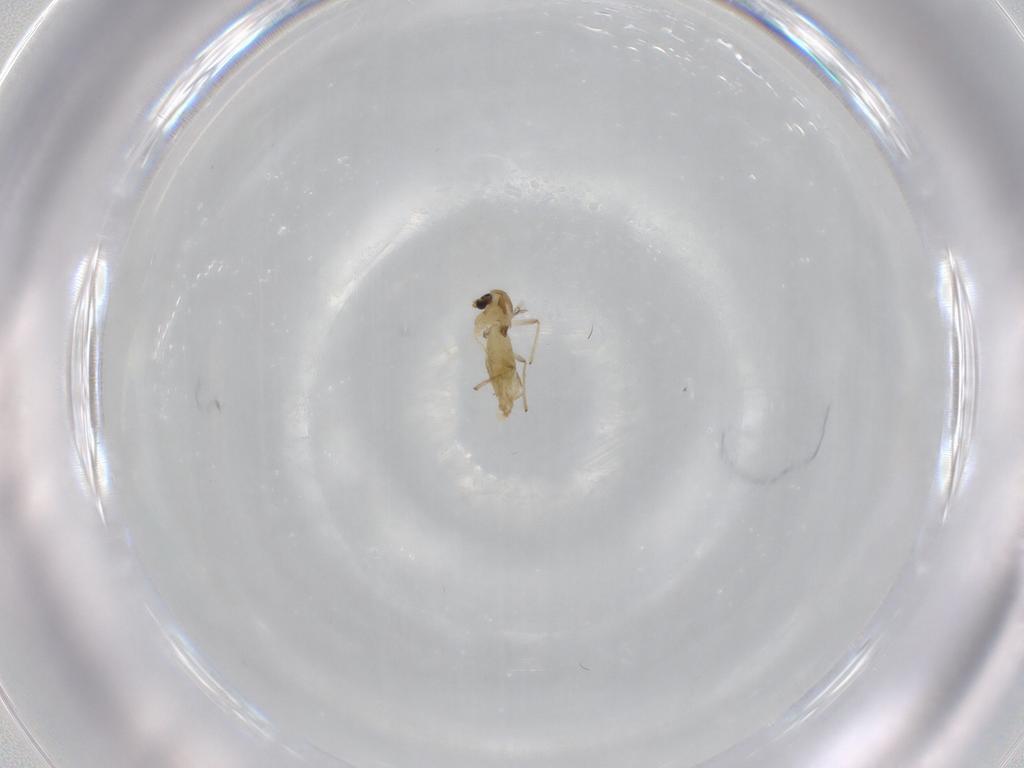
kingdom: Animalia
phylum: Arthropoda
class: Insecta
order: Diptera
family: Chironomidae
